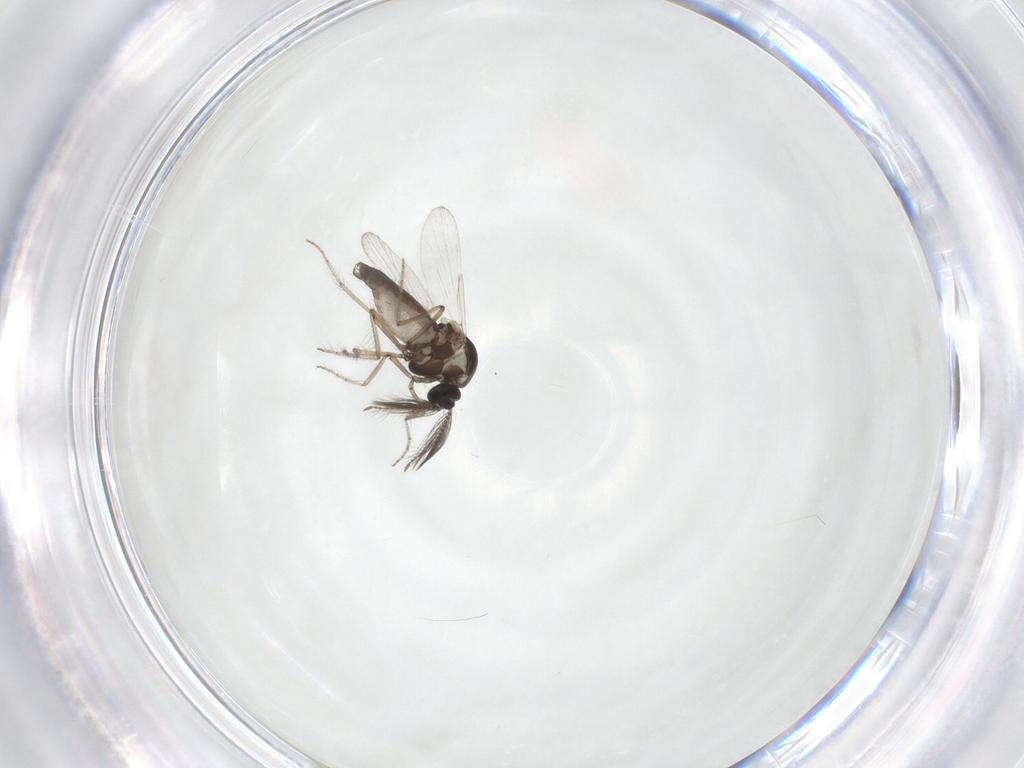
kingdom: Animalia
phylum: Arthropoda
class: Insecta
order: Diptera
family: Ceratopogonidae
